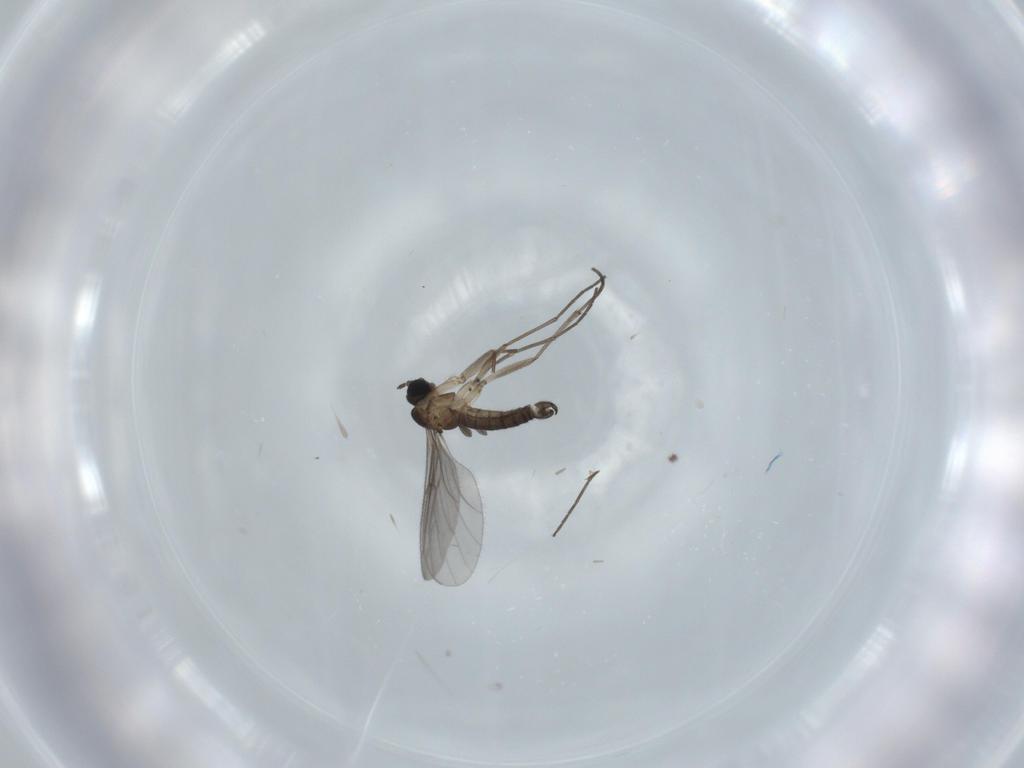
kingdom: Animalia
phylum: Arthropoda
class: Insecta
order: Diptera
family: Sciaridae
